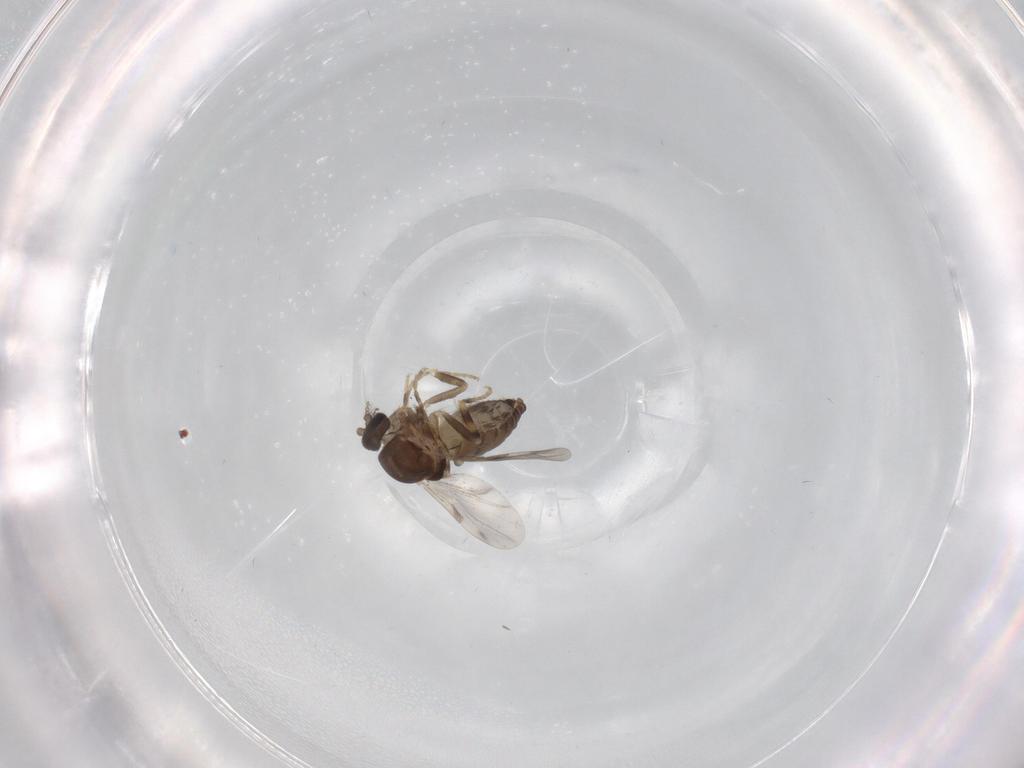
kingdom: Animalia
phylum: Arthropoda
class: Insecta
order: Diptera
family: Ceratopogonidae
